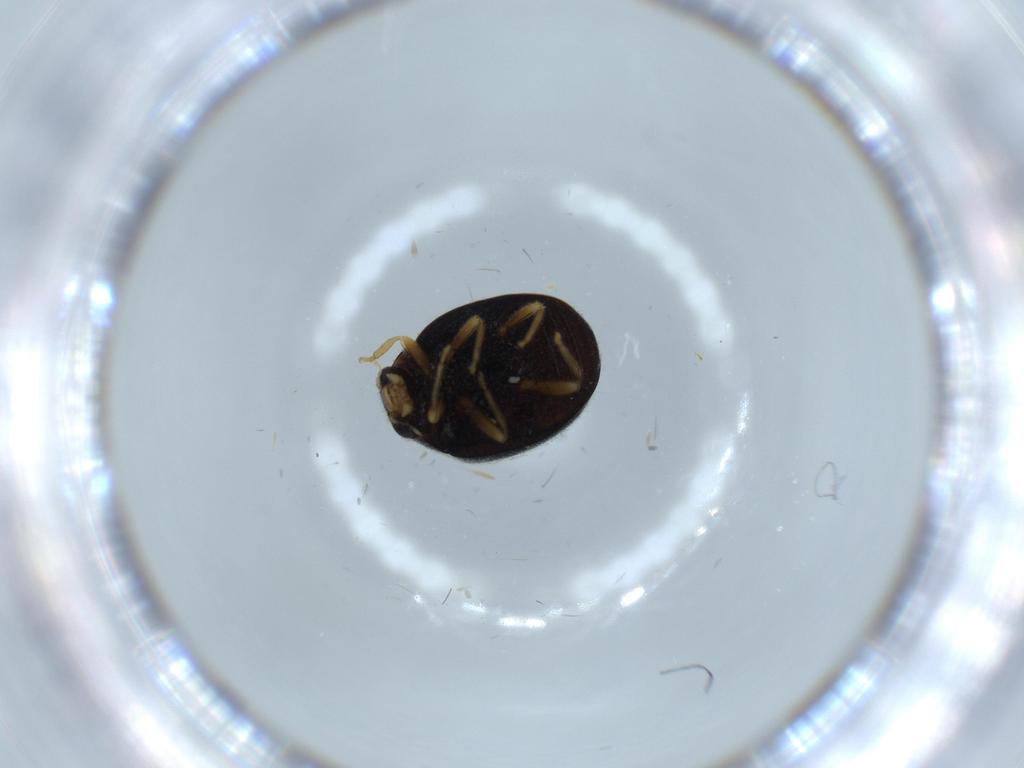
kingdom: Animalia
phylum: Arthropoda
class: Insecta
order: Coleoptera
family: Coccinellidae
